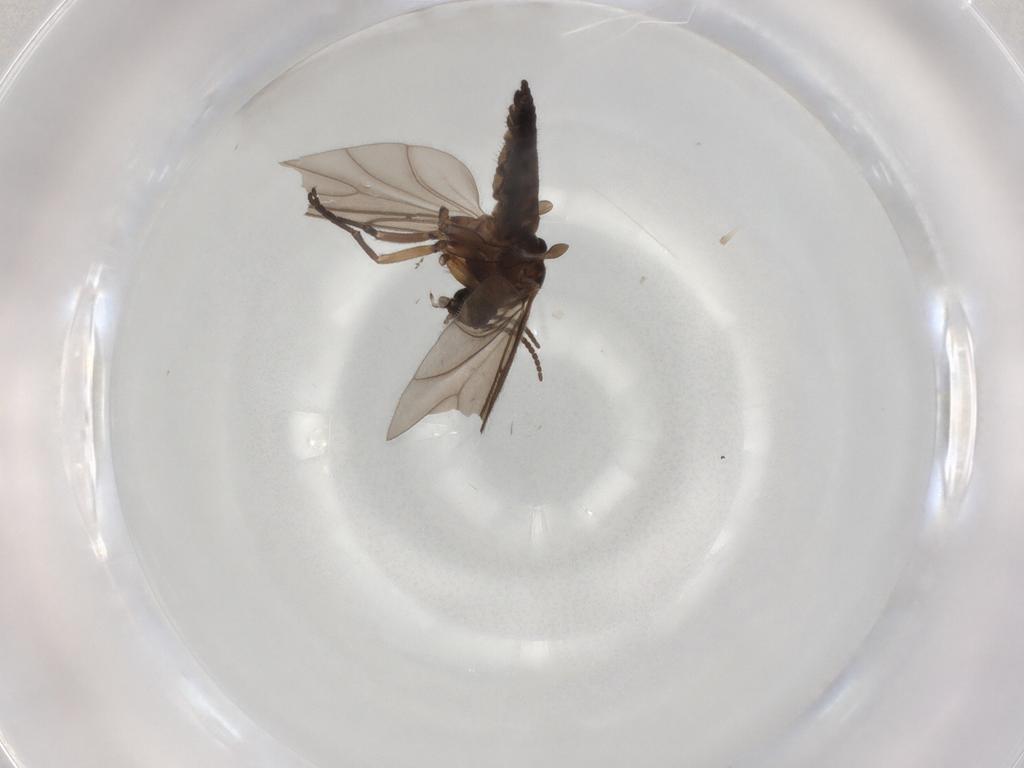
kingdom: Animalia
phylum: Arthropoda
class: Insecta
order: Diptera
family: Sciaridae
